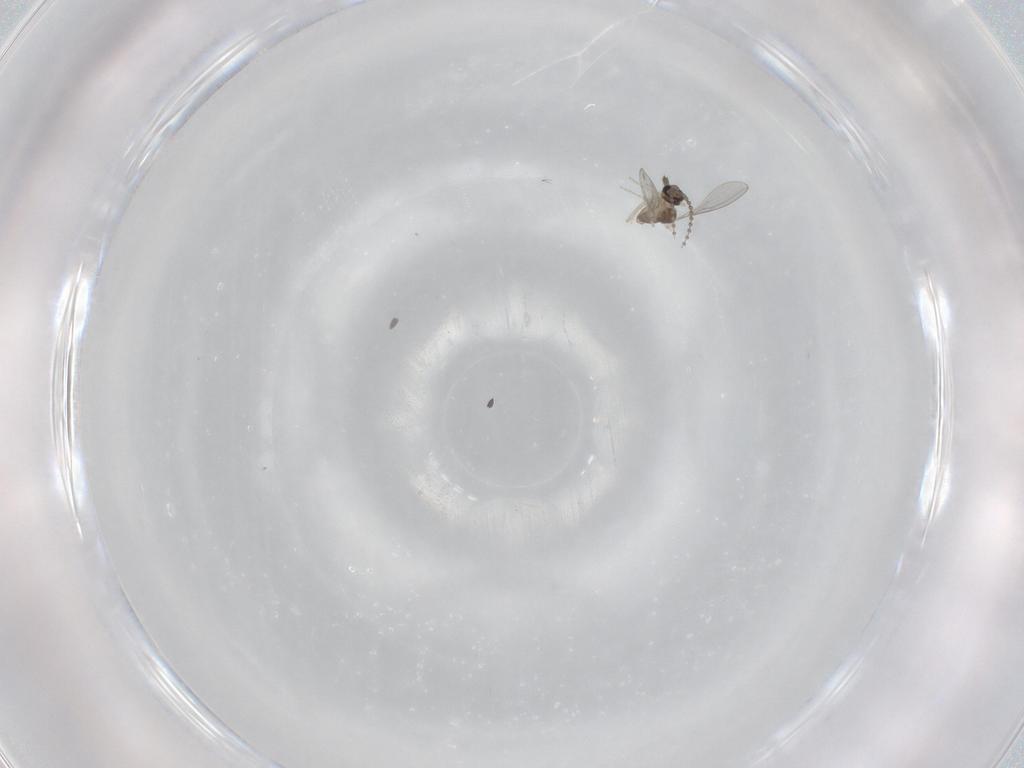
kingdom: Animalia
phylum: Arthropoda
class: Insecta
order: Diptera
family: Cecidomyiidae
